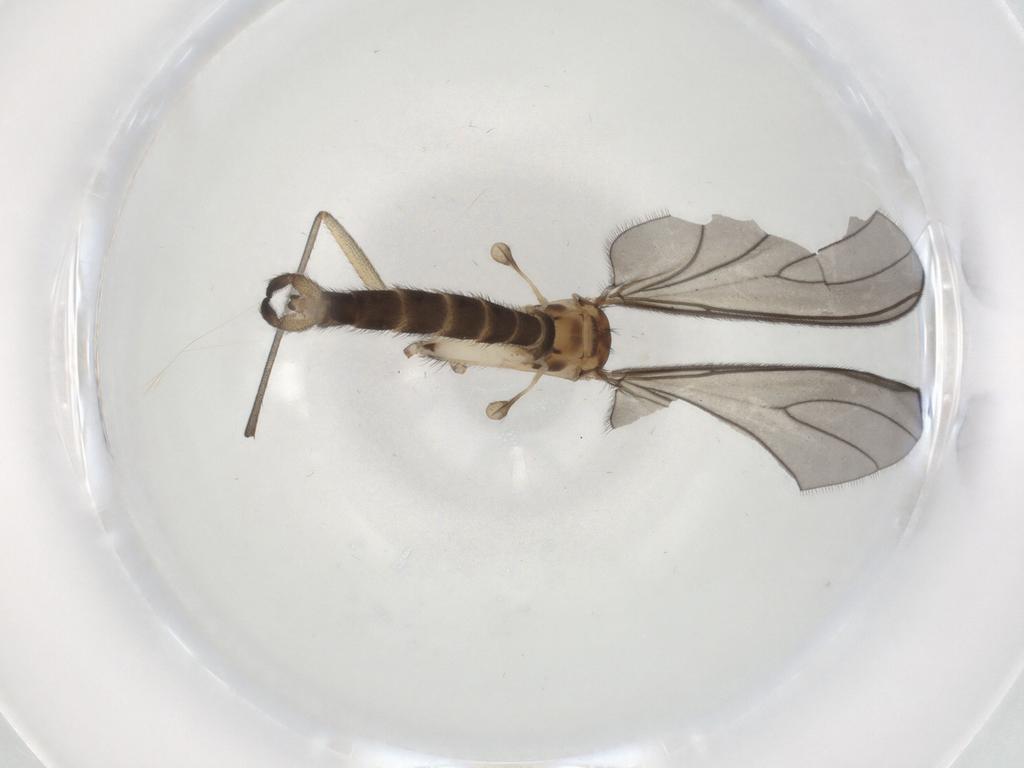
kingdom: Animalia
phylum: Arthropoda
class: Insecta
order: Diptera
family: Sciaridae
